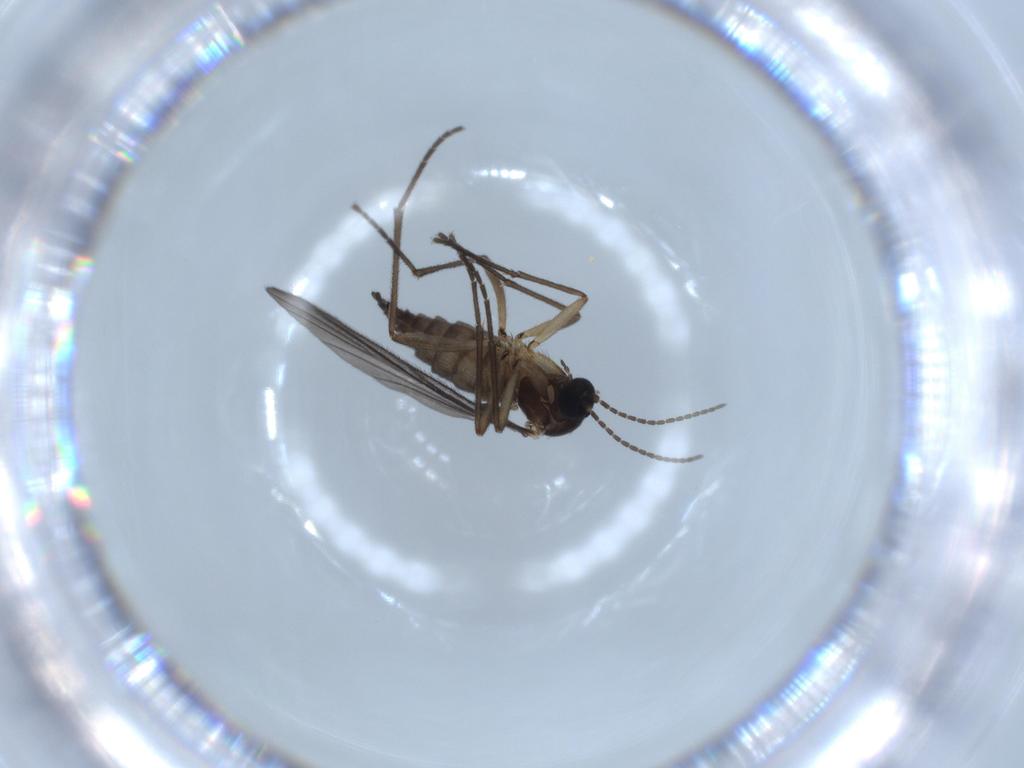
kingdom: Animalia
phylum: Arthropoda
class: Insecta
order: Diptera
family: Sciaridae
